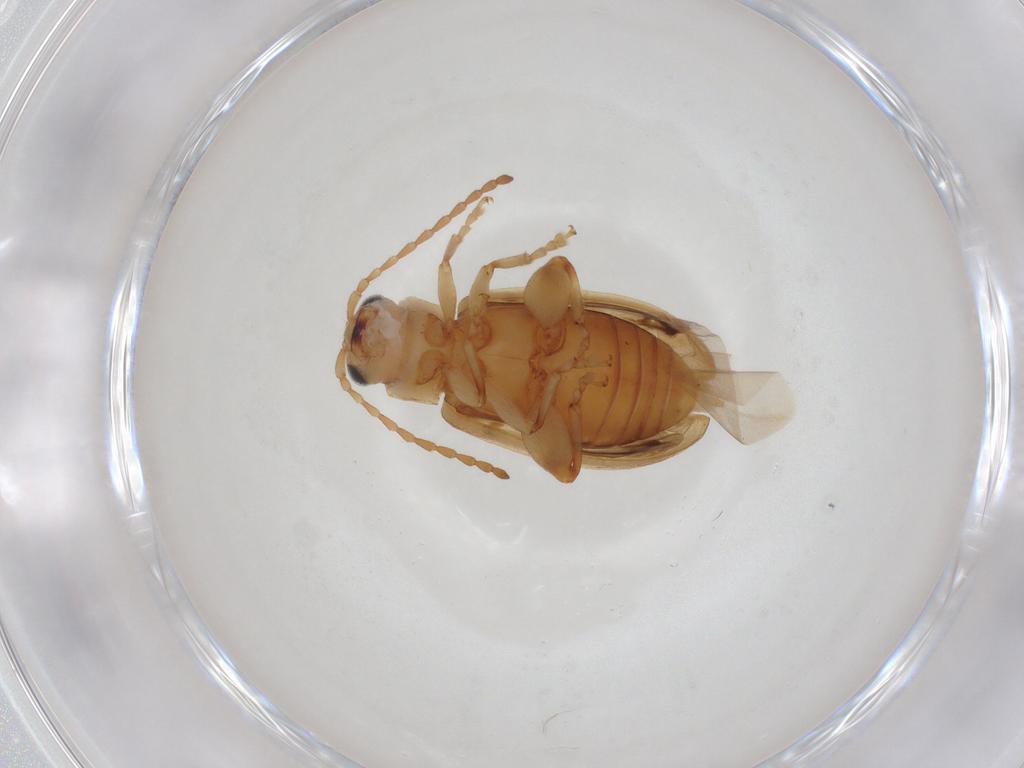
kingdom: Animalia
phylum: Arthropoda
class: Insecta
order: Coleoptera
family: Chrysomelidae
